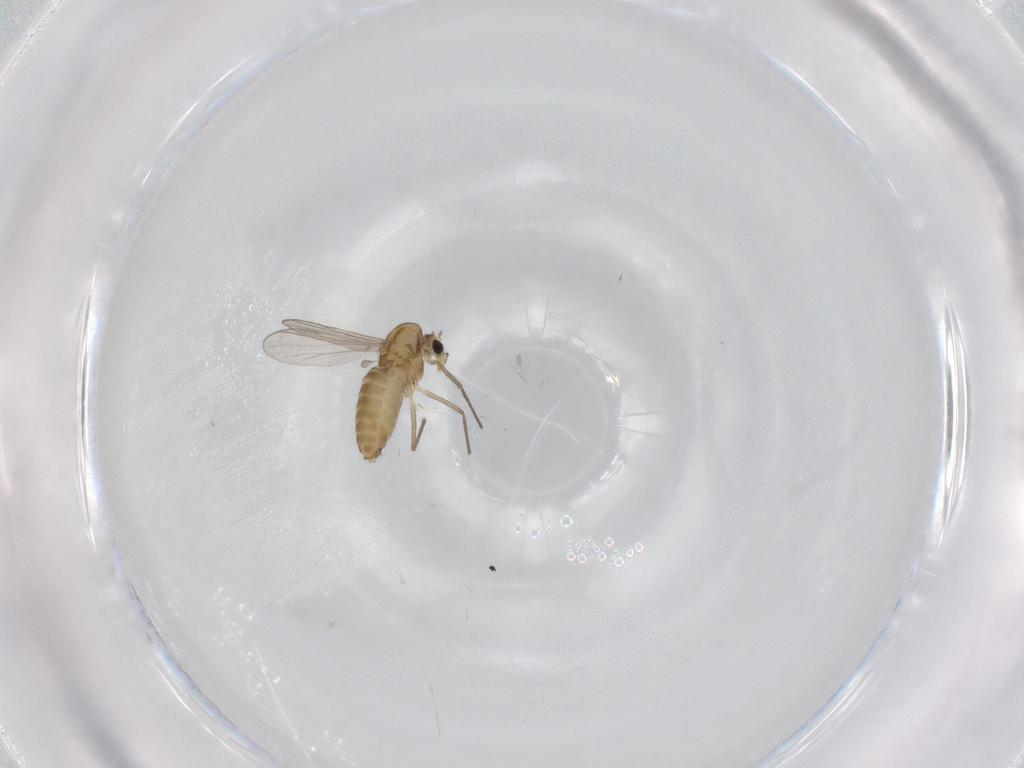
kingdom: Animalia
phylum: Arthropoda
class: Insecta
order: Diptera
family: Chironomidae
